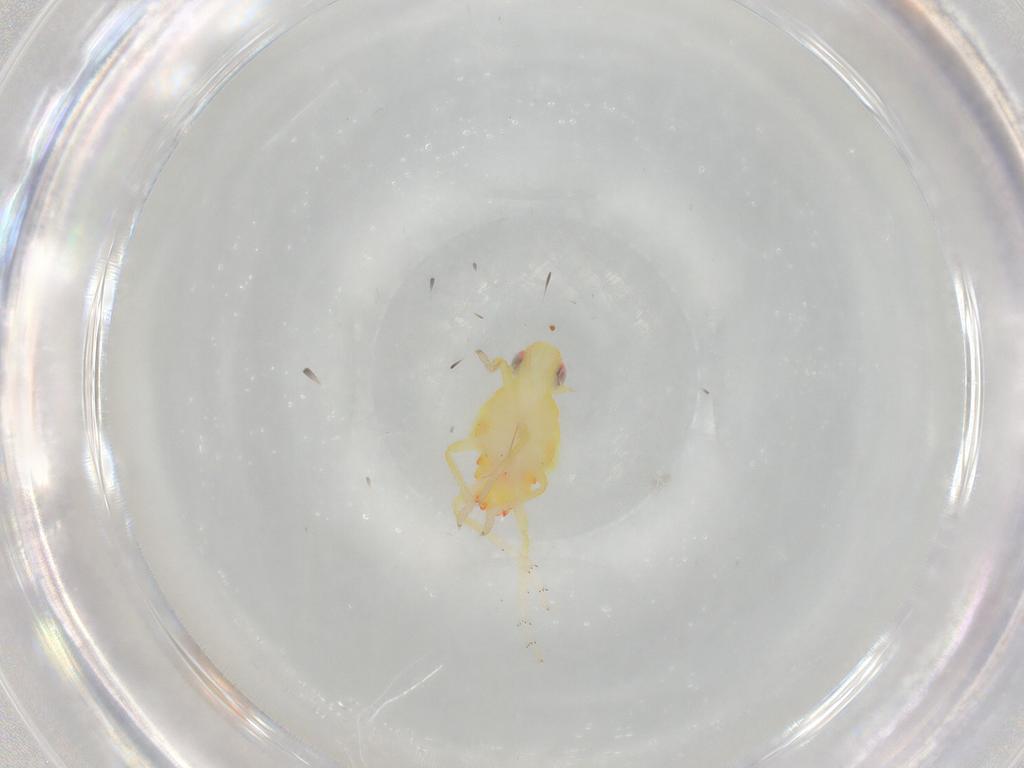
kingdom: Animalia
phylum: Arthropoda
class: Insecta
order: Hemiptera
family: Tropiduchidae
